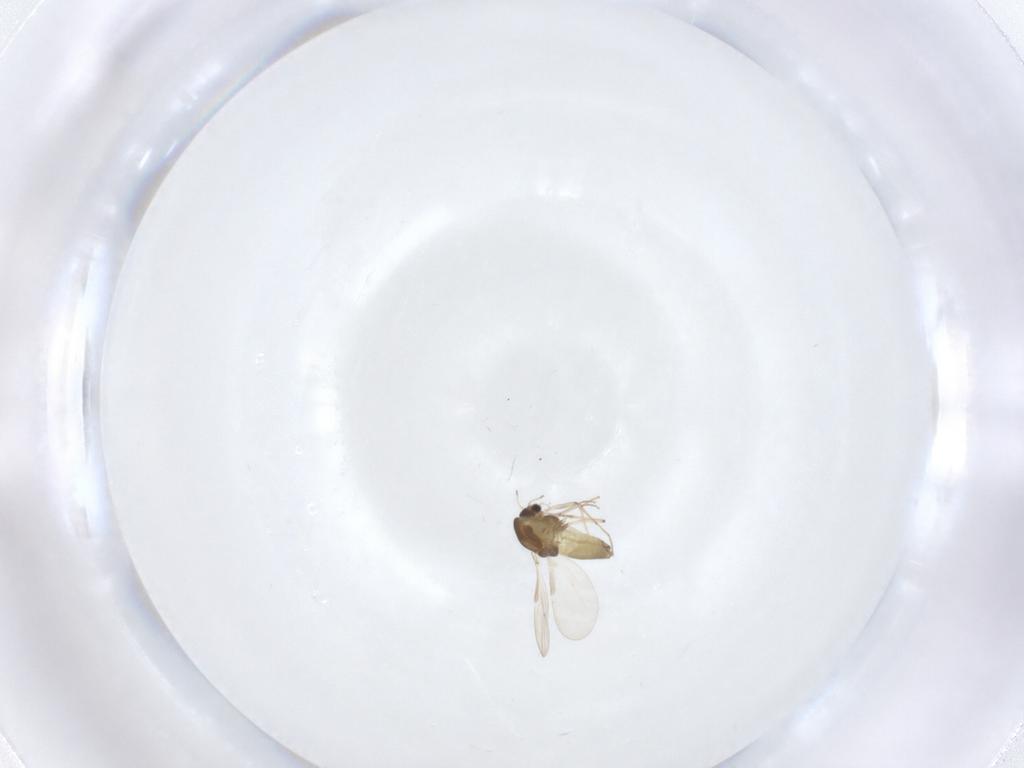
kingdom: Animalia
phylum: Arthropoda
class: Insecta
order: Diptera
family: Chironomidae
